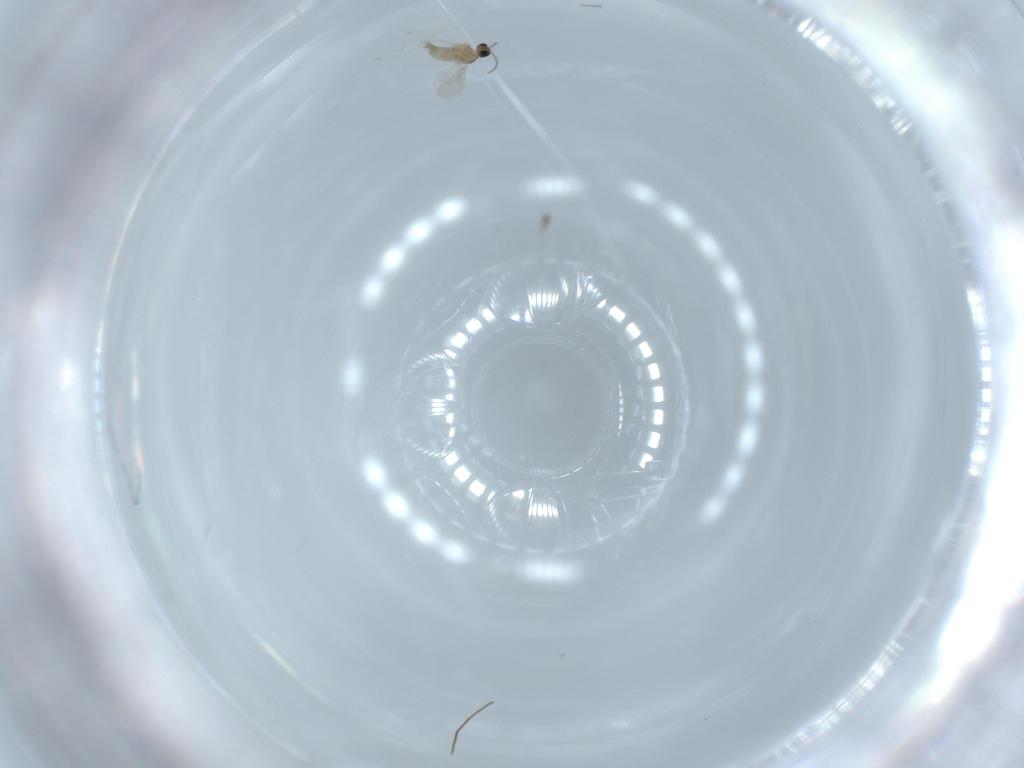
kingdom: Animalia
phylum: Arthropoda
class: Insecta
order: Diptera
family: Cecidomyiidae
